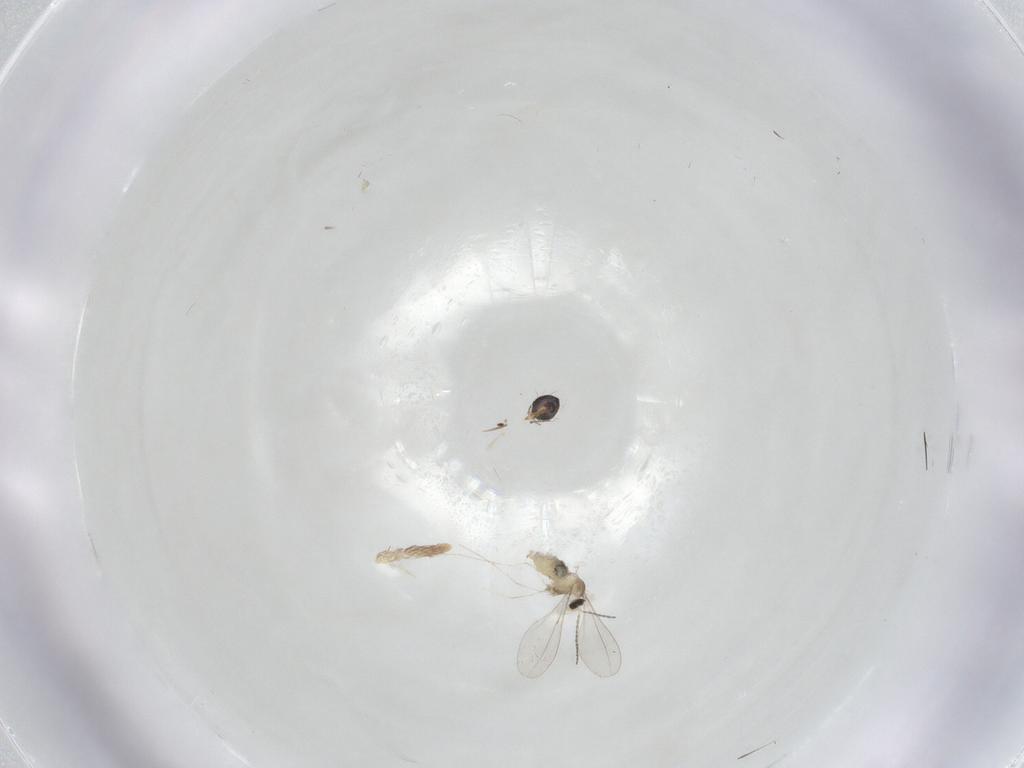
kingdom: Animalia
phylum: Arthropoda
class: Insecta
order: Diptera
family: Cecidomyiidae
